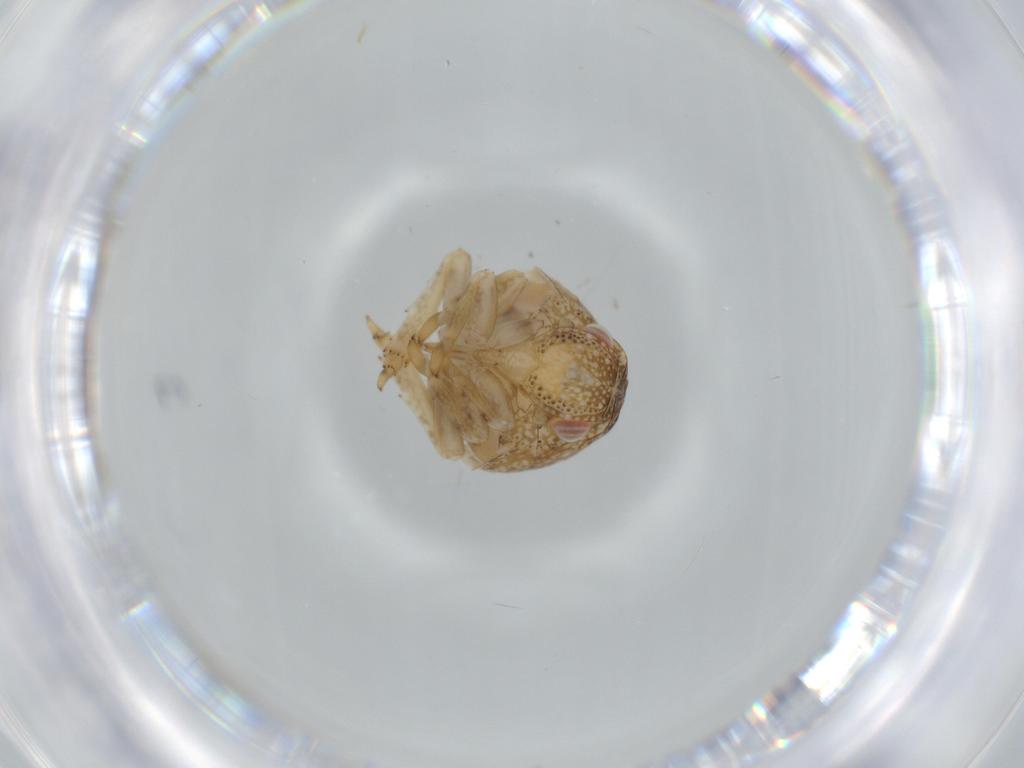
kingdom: Animalia
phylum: Arthropoda
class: Insecta
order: Hemiptera
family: Acanaloniidae
